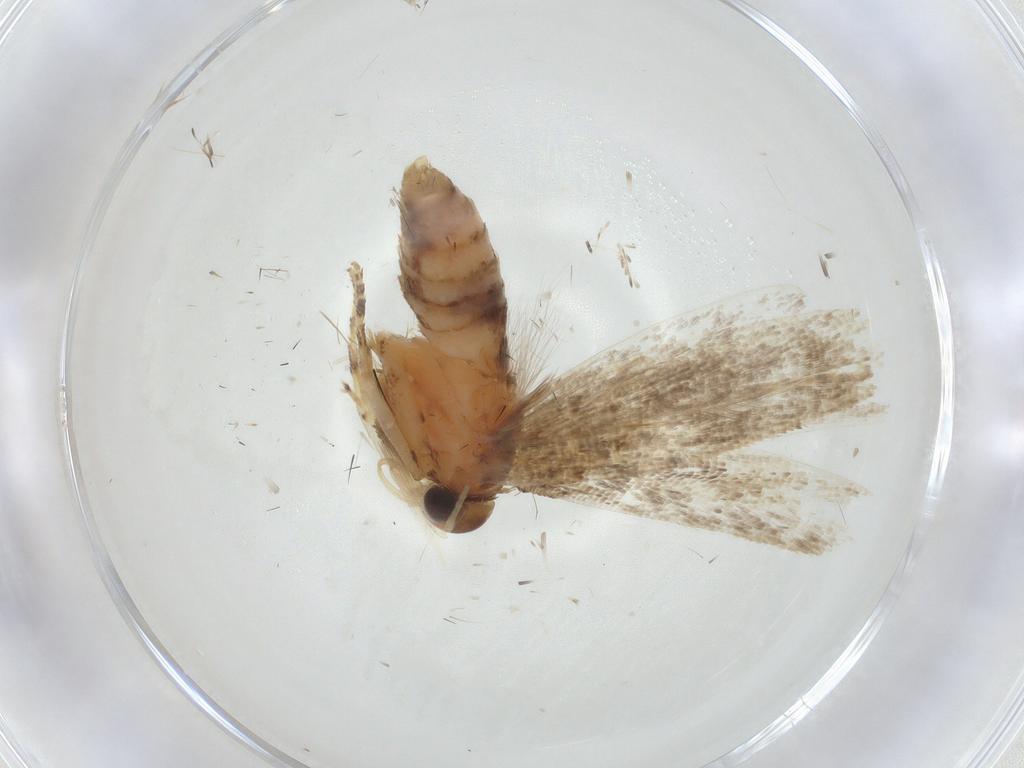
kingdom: Animalia
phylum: Arthropoda
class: Insecta
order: Lepidoptera
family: Gelechiidae
